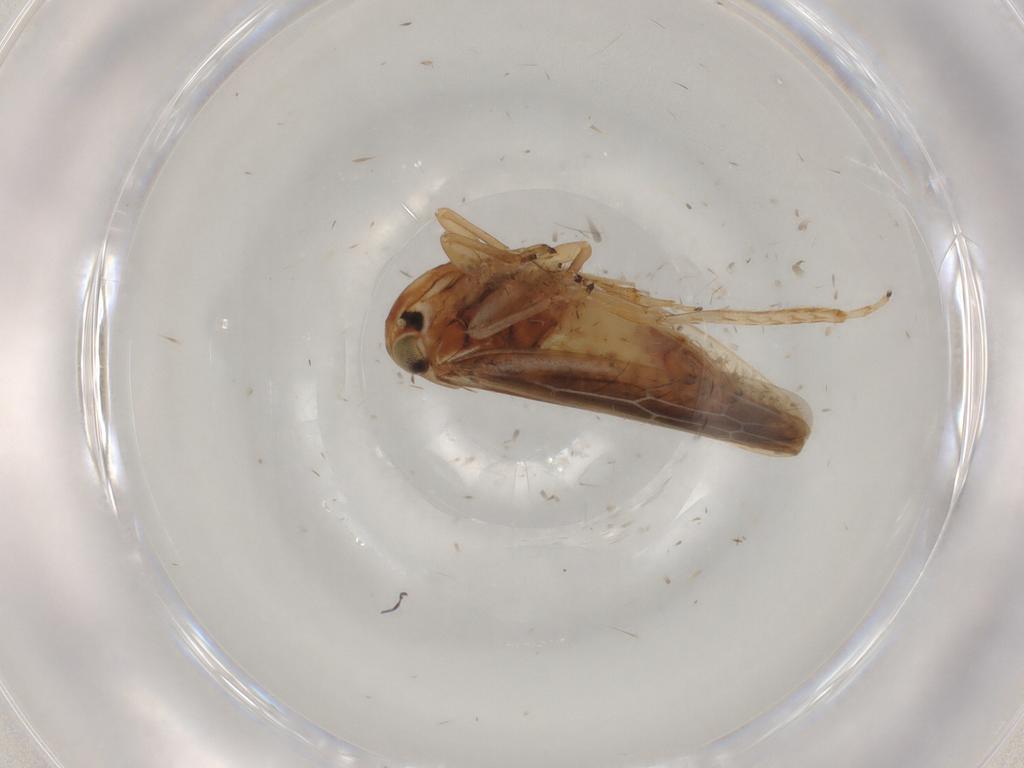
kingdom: Animalia
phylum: Arthropoda
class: Insecta
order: Hemiptera
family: Cicadellidae
